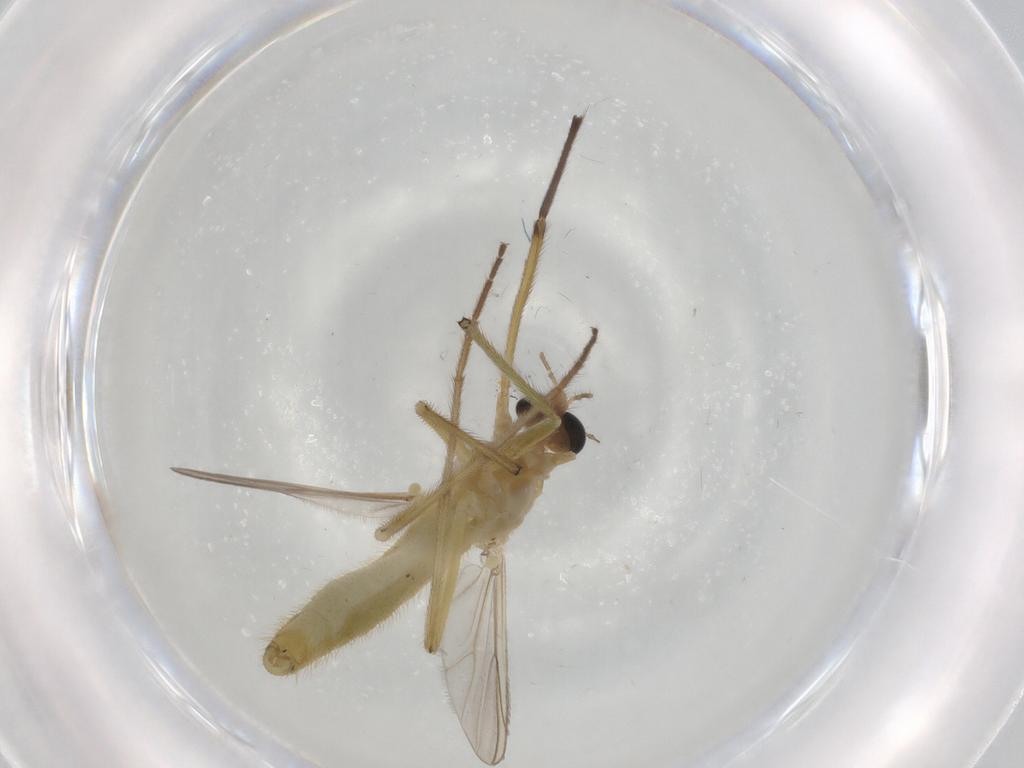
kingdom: Animalia
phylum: Arthropoda
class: Insecta
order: Diptera
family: Chironomidae
